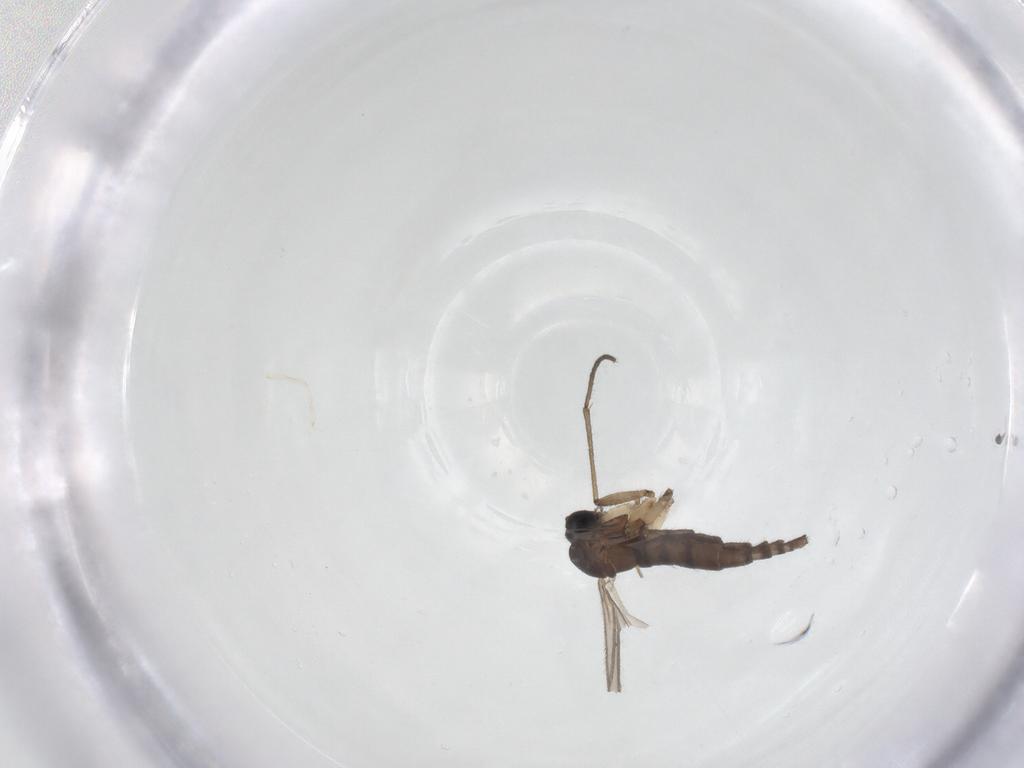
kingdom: Animalia
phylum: Arthropoda
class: Insecta
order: Diptera
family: Sciaridae
